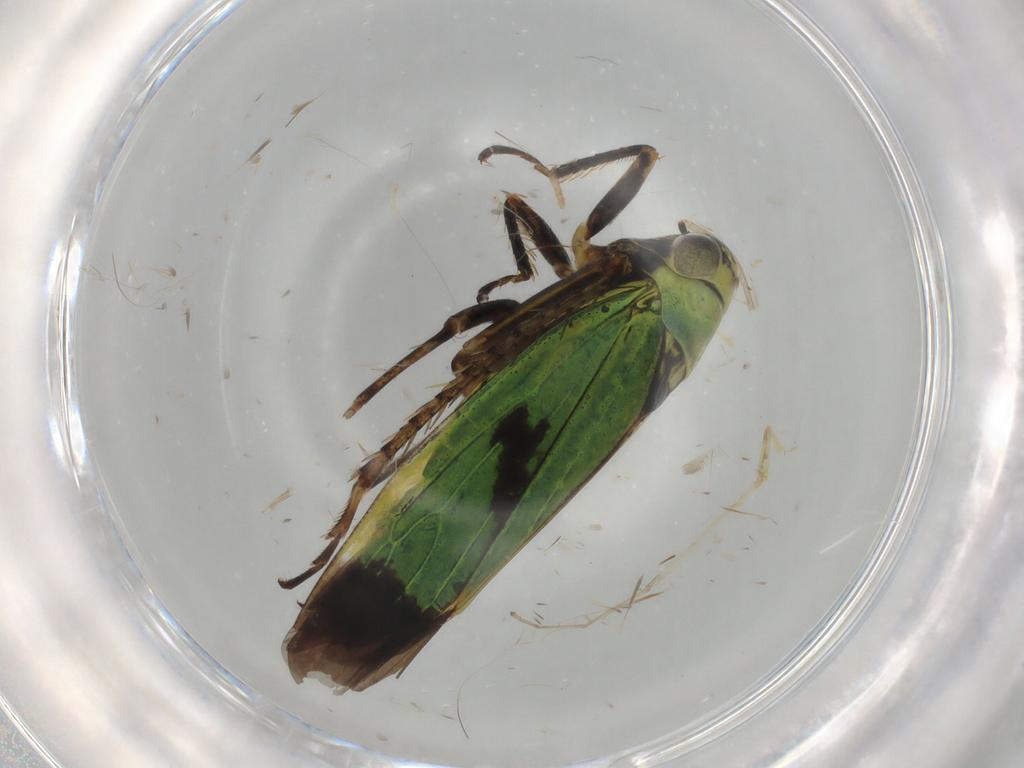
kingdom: Animalia
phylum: Arthropoda
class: Insecta
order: Hemiptera
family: Cicadellidae
